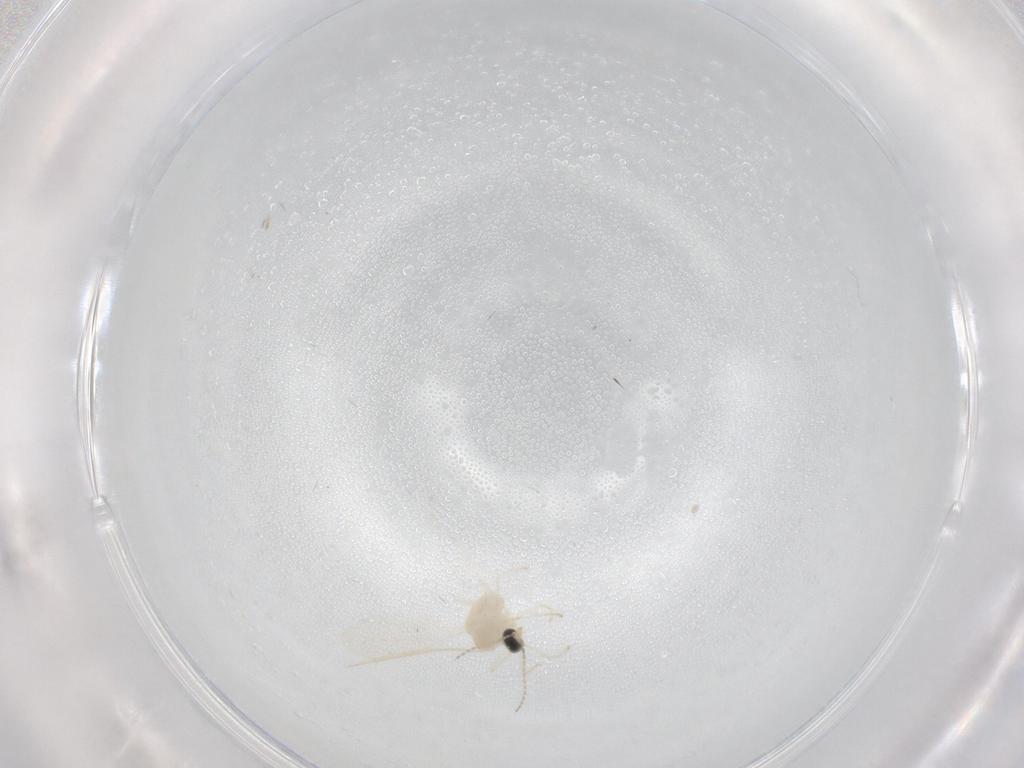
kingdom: Animalia
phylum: Arthropoda
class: Insecta
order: Diptera
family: Cecidomyiidae
